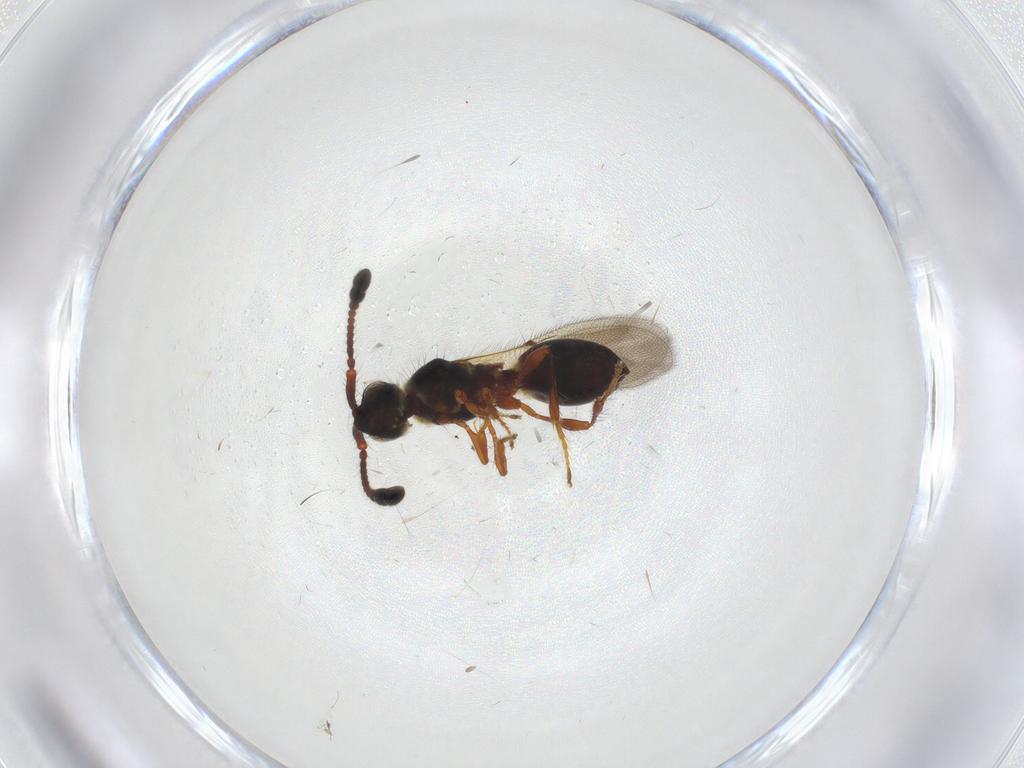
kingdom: Animalia
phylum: Arthropoda
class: Insecta
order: Hymenoptera
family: Diapriidae
